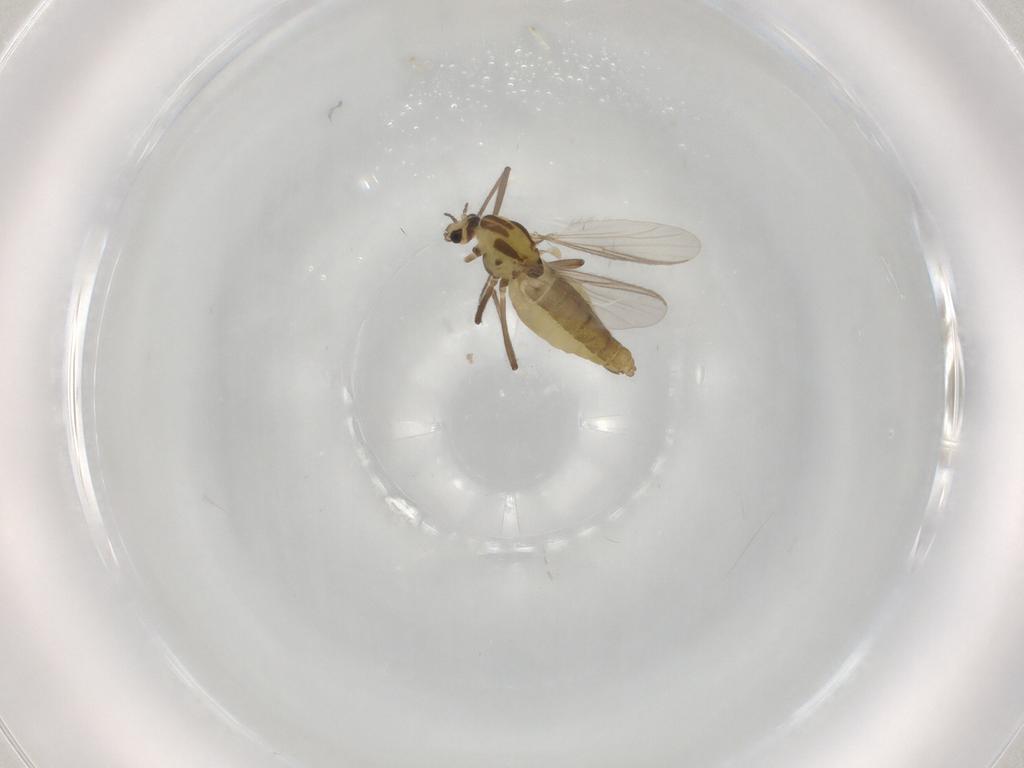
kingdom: Animalia
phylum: Arthropoda
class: Insecta
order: Diptera
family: Chironomidae
